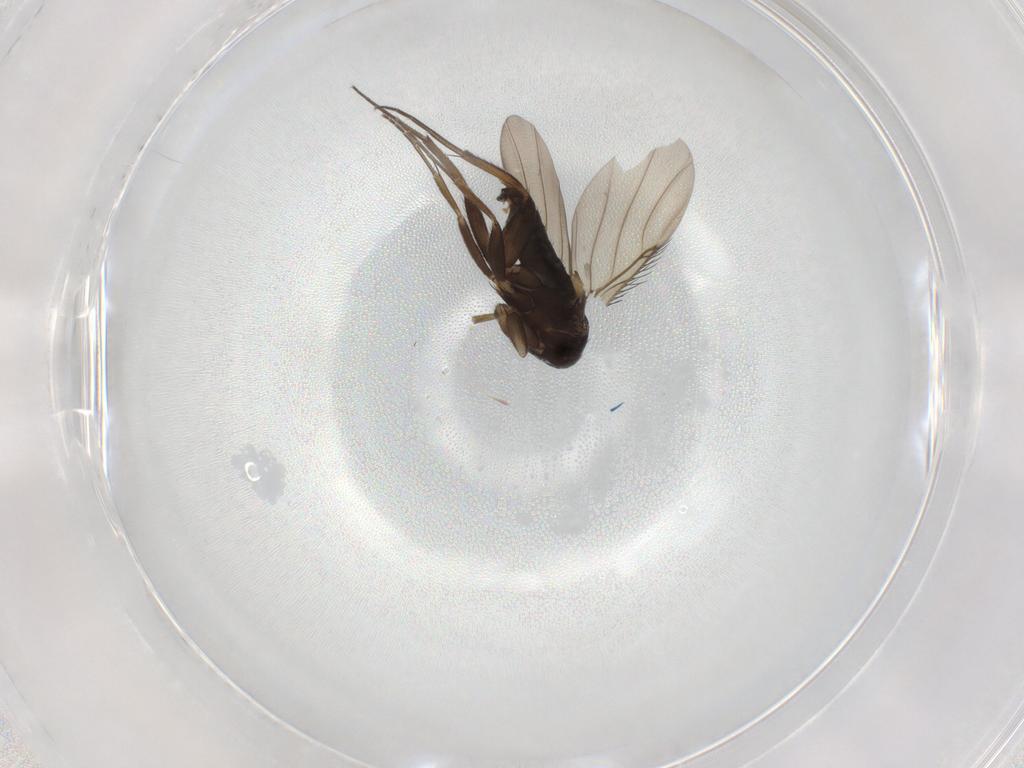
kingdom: Animalia
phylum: Arthropoda
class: Insecta
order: Diptera
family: Phoridae
